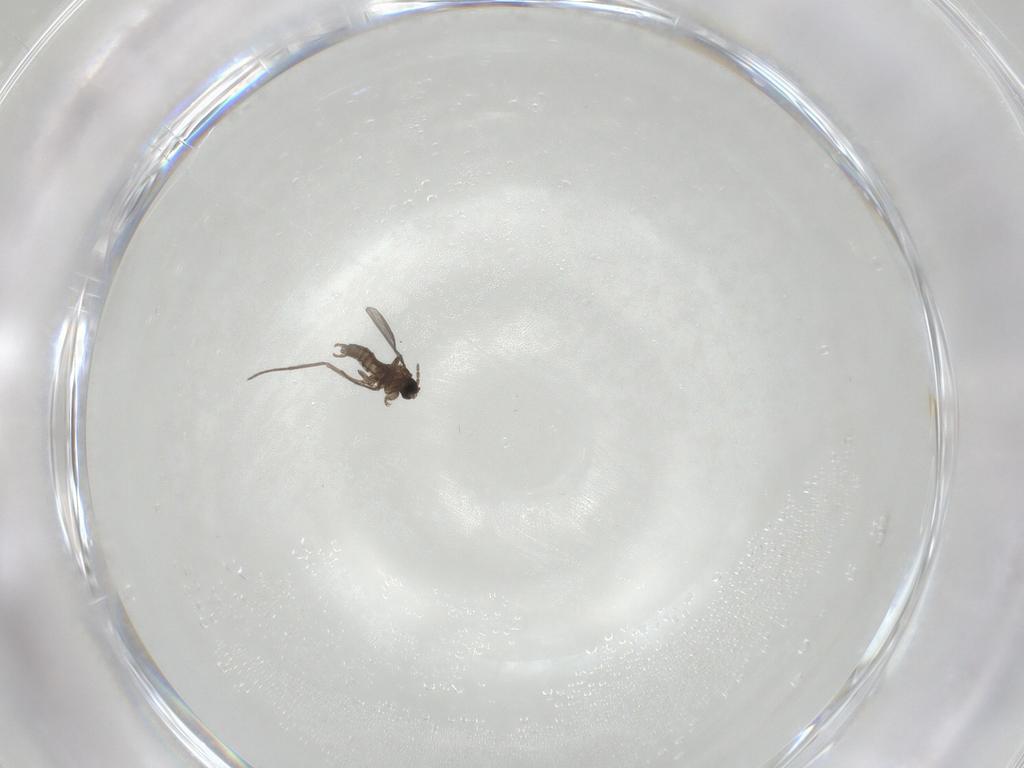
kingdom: Animalia
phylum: Arthropoda
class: Insecta
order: Diptera
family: Sciaridae
